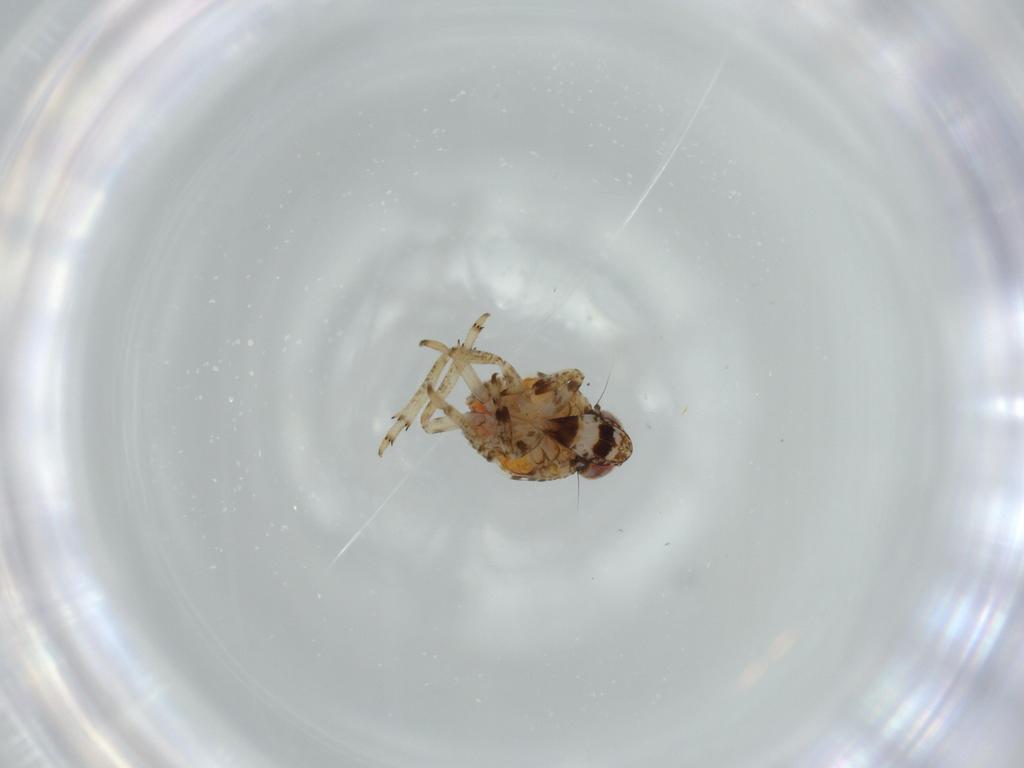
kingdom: Animalia
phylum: Arthropoda
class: Insecta
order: Hemiptera
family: Issidae
